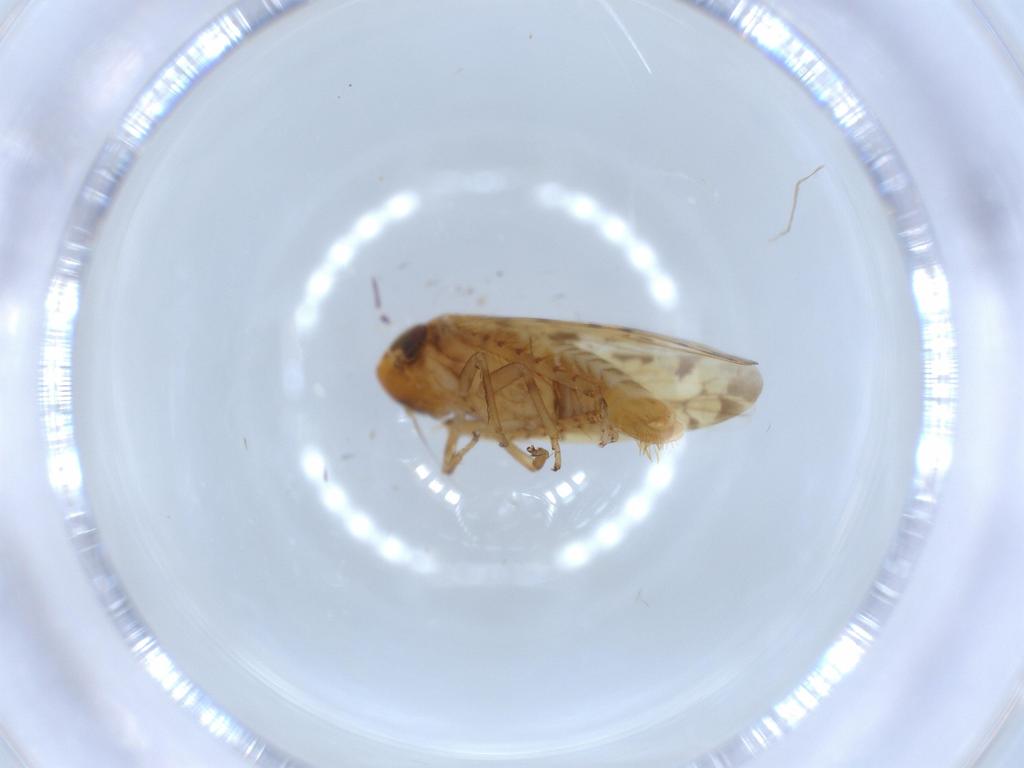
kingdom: Animalia
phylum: Arthropoda
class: Insecta
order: Hemiptera
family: Cicadellidae
